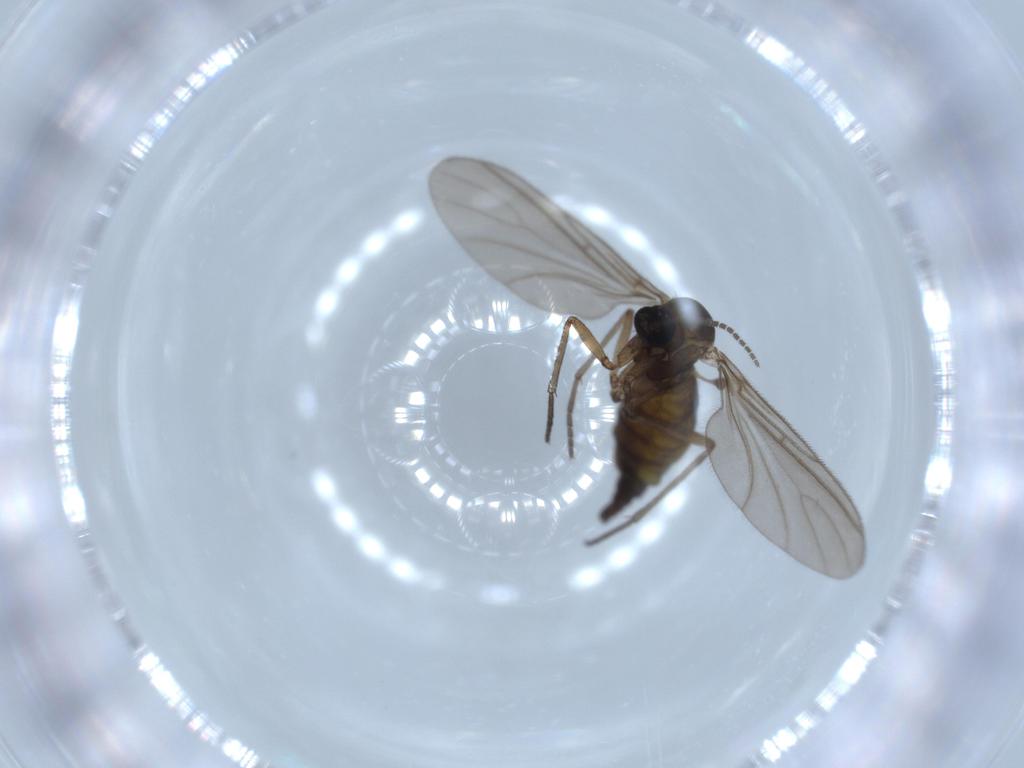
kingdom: Animalia
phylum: Arthropoda
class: Insecta
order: Diptera
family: Sciaridae
